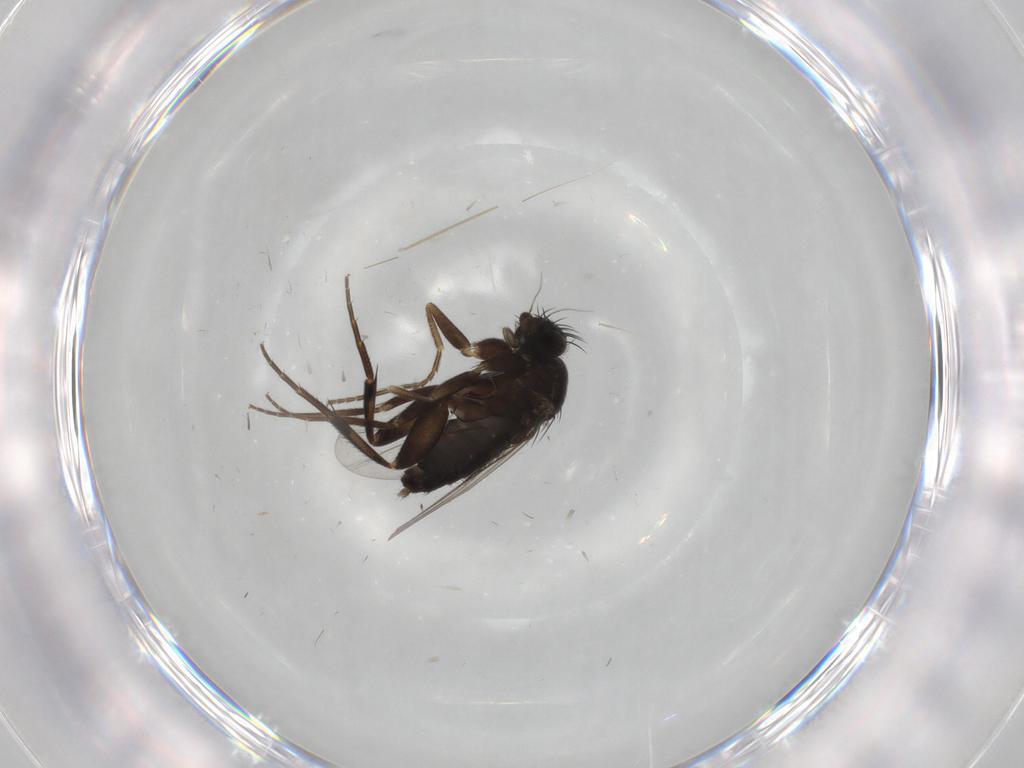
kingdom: Animalia
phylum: Arthropoda
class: Insecta
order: Diptera
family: Phoridae
